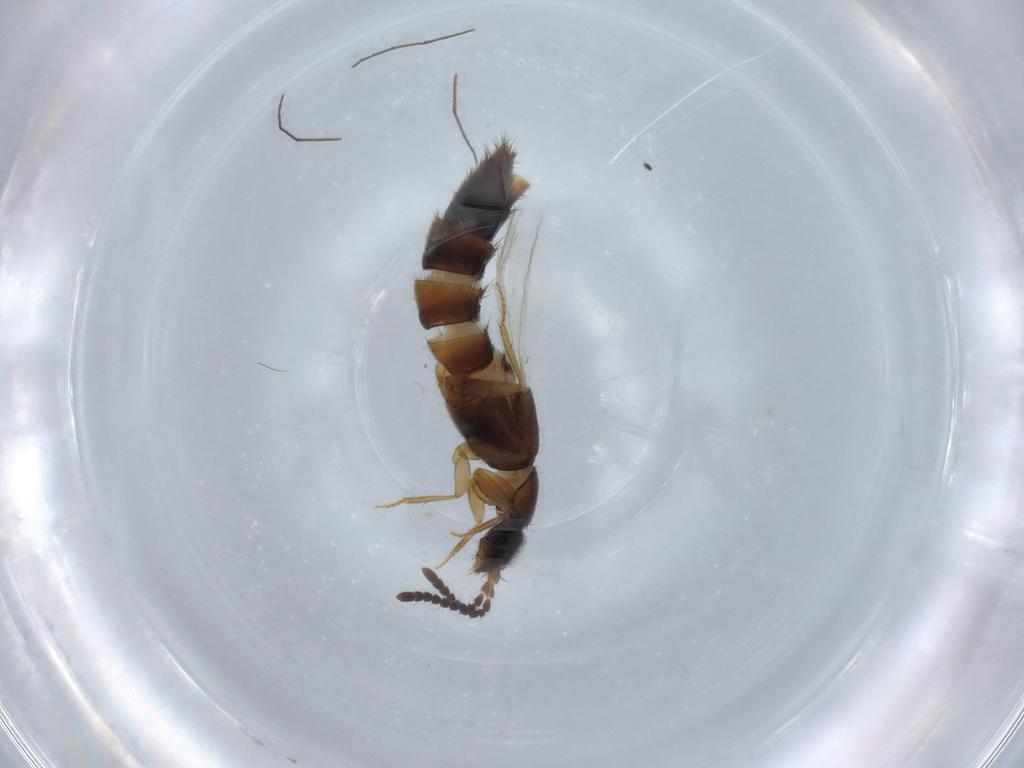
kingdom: Animalia
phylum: Arthropoda
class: Insecta
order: Coleoptera
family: Staphylinidae
